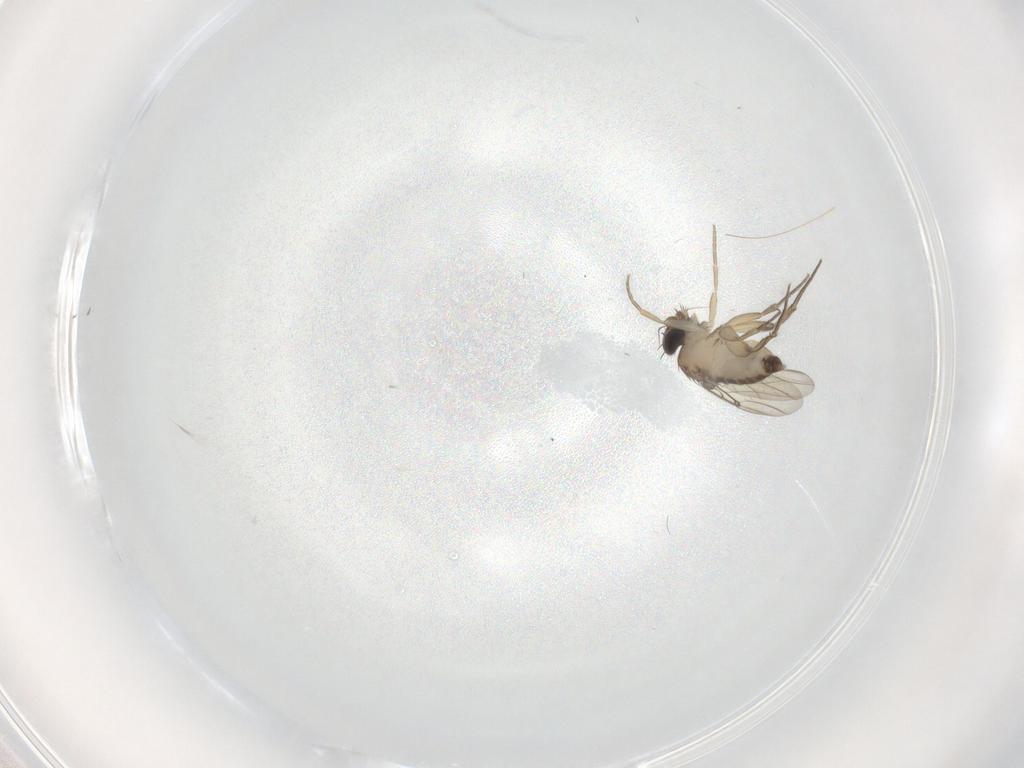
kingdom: Animalia
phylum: Arthropoda
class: Insecta
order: Diptera
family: Phoridae
